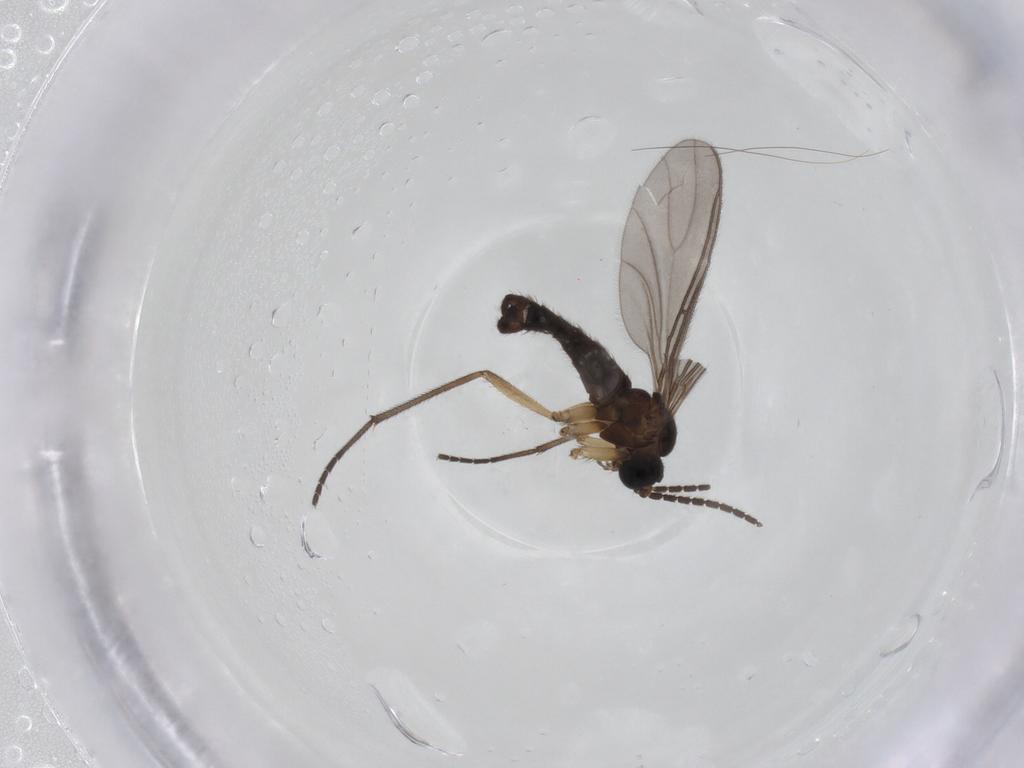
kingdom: Animalia
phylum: Arthropoda
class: Insecta
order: Diptera
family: Sciaridae
